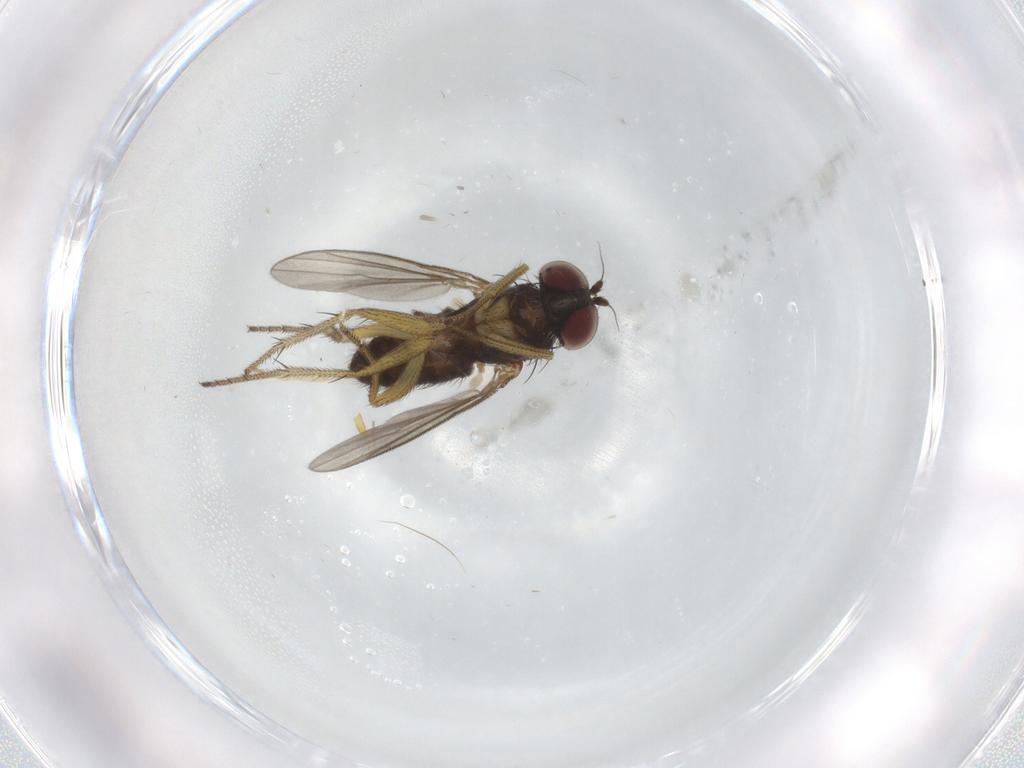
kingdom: Animalia
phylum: Arthropoda
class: Insecta
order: Diptera
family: Dolichopodidae
